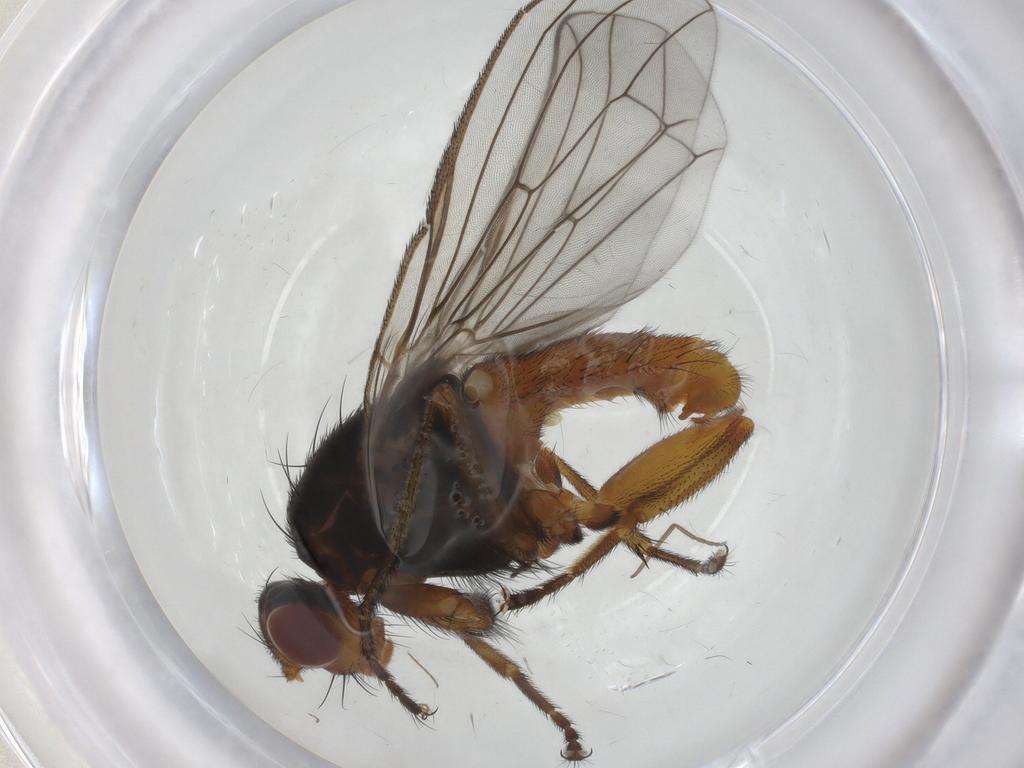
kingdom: Animalia
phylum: Arthropoda
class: Insecta
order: Diptera
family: Heleomyzidae
